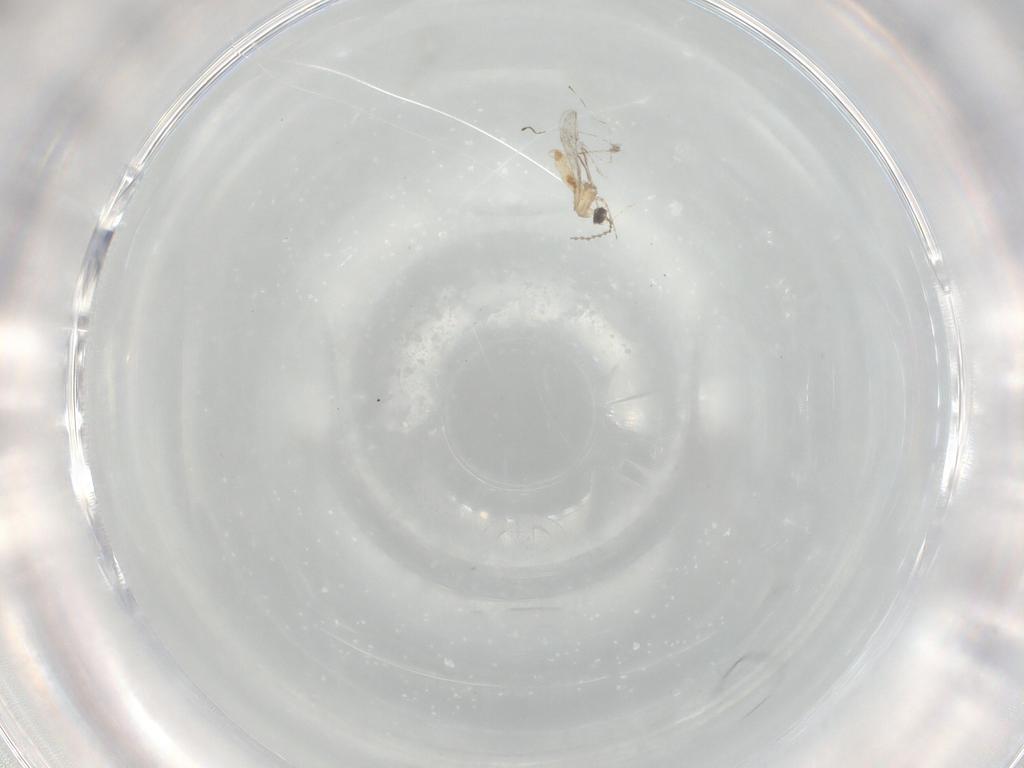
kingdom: Animalia
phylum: Arthropoda
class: Insecta
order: Diptera
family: Cecidomyiidae
